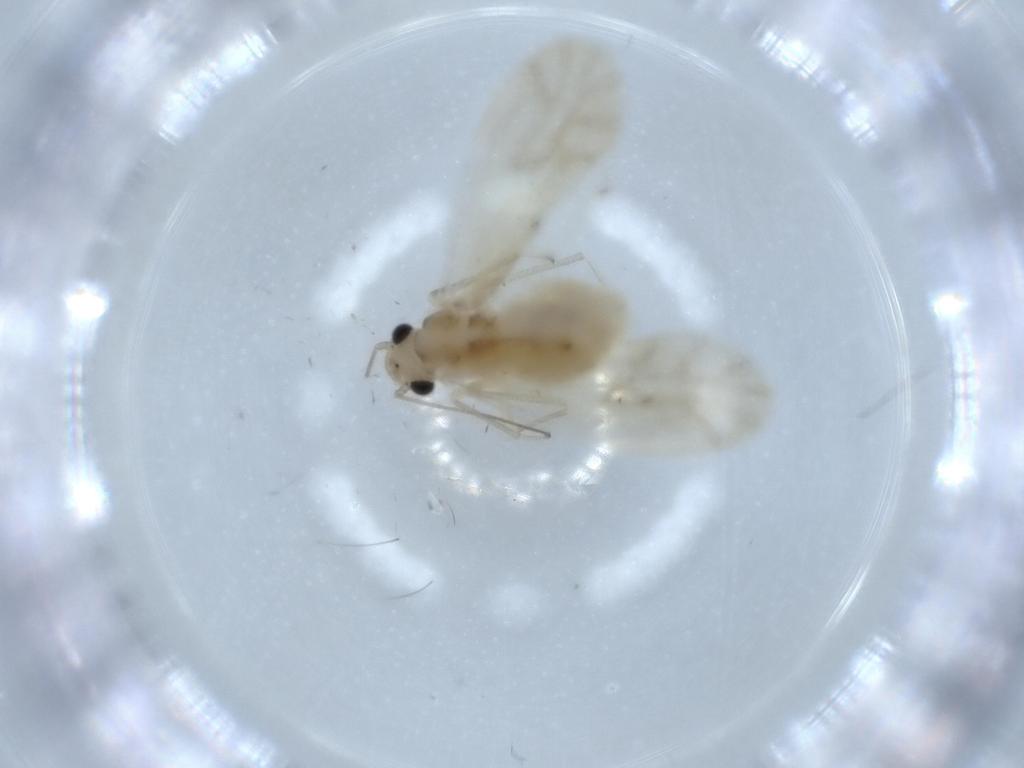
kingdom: Animalia
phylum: Arthropoda
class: Insecta
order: Psocodea
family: Caeciliusidae
